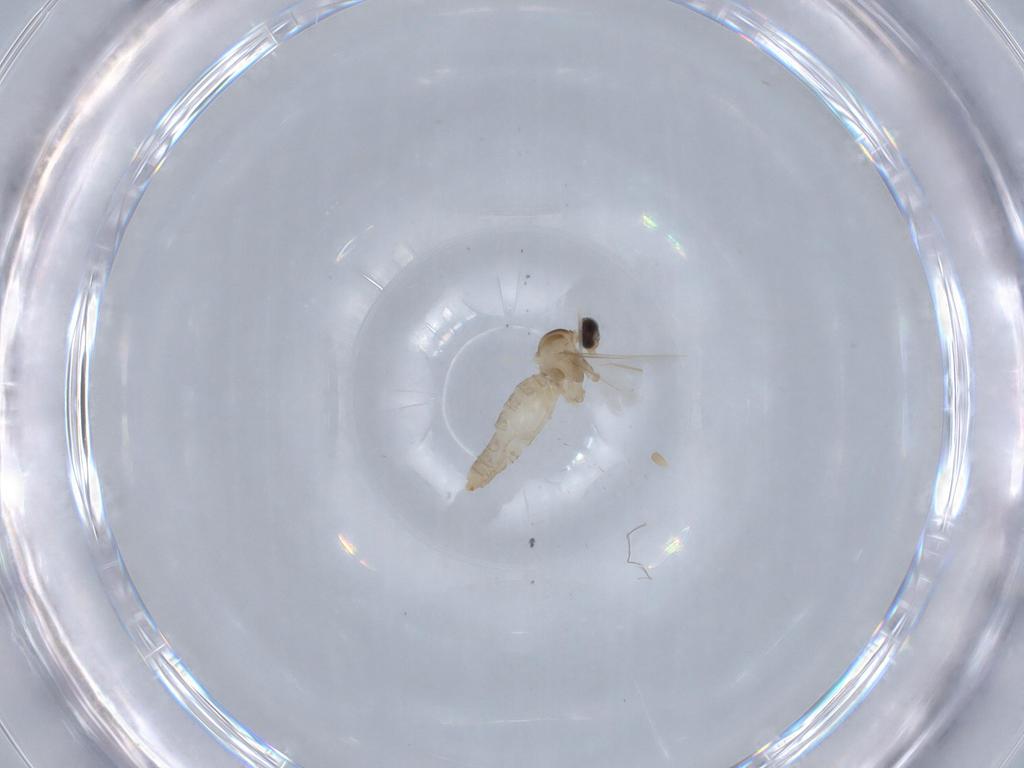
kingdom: Animalia
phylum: Arthropoda
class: Insecta
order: Diptera
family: Cecidomyiidae
